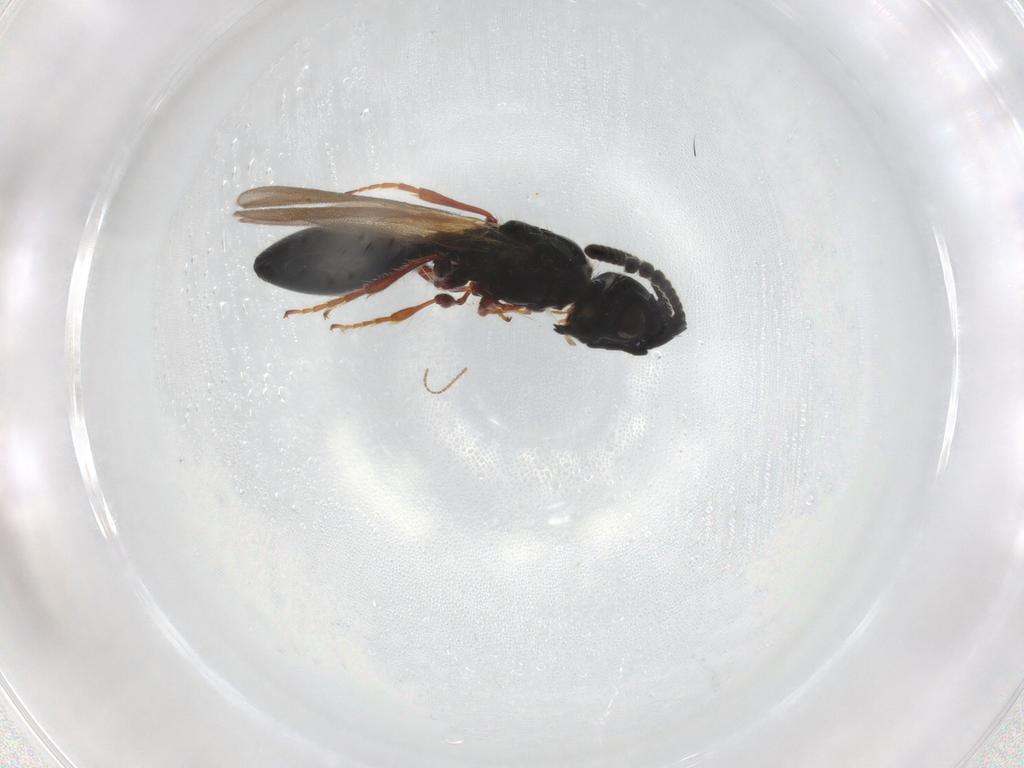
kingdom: Animalia
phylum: Arthropoda
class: Insecta
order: Hymenoptera
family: Diapriidae
